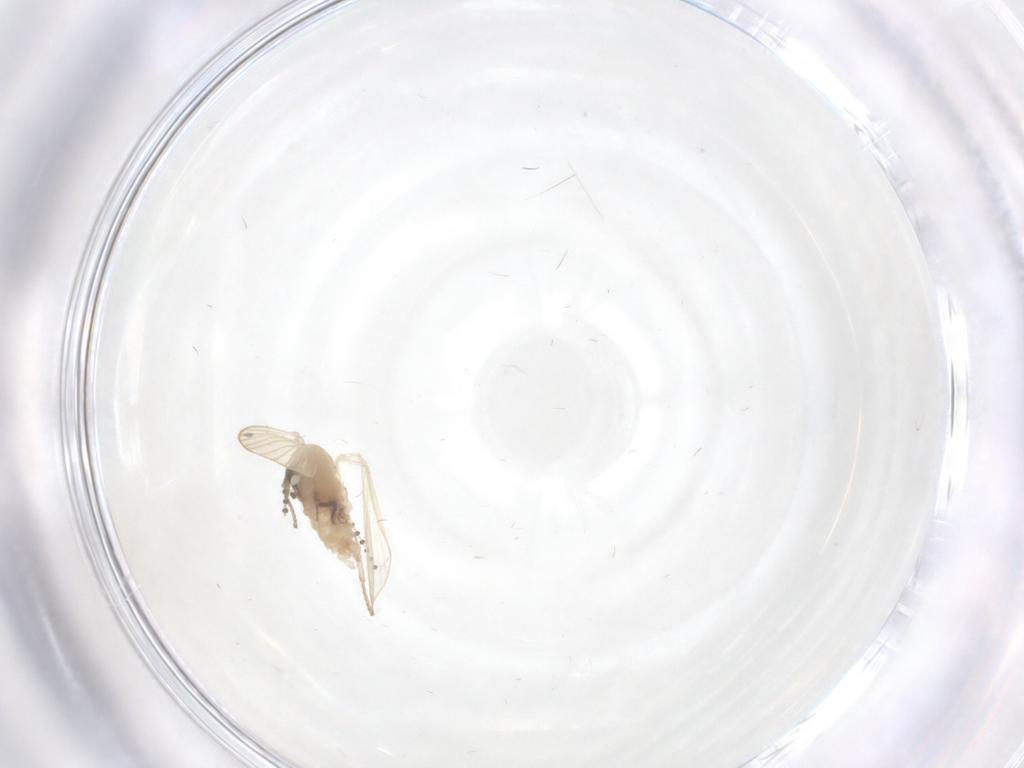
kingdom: Animalia
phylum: Arthropoda
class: Insecta
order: Diptera
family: Psychodidae
